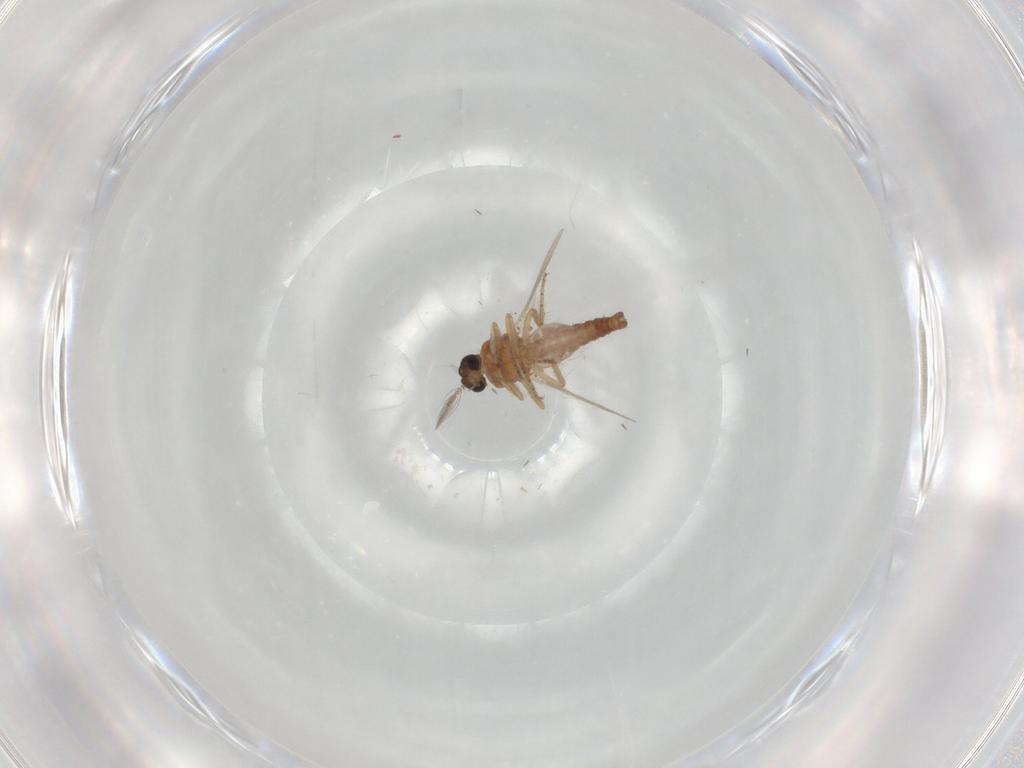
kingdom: Animalia
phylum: Arthropoda
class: Insecta
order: Diptera
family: Ceratopogonidae
